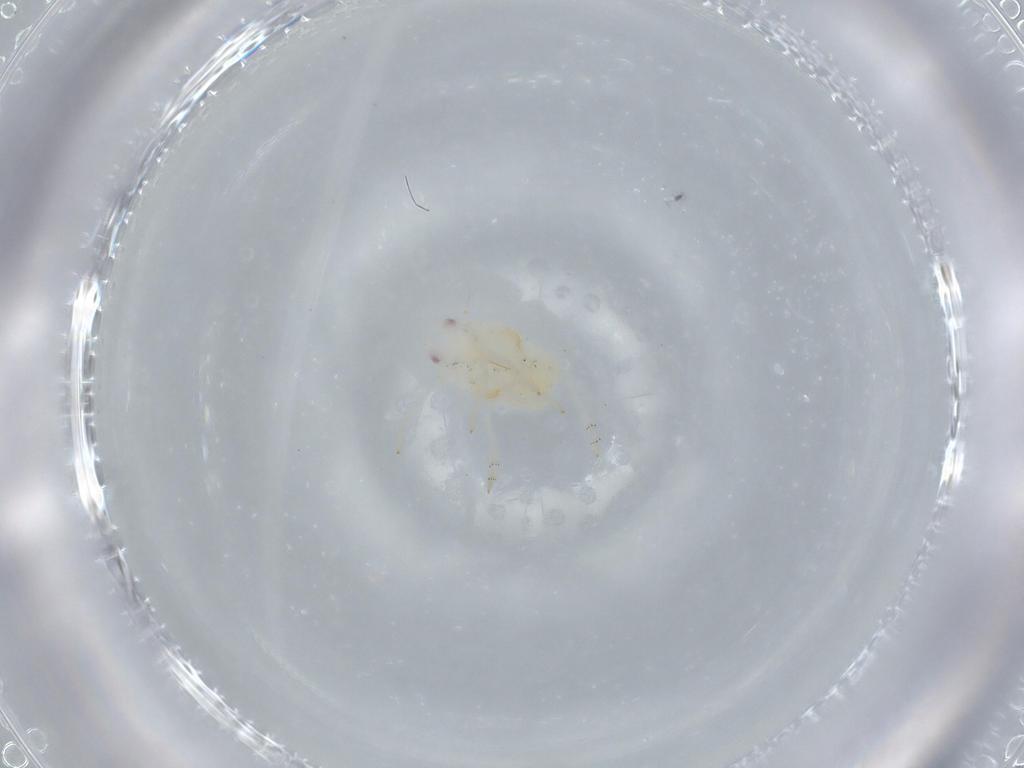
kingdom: Animalia
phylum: Arthropoda
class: Insecta
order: Hemiptera
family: Flatidae
